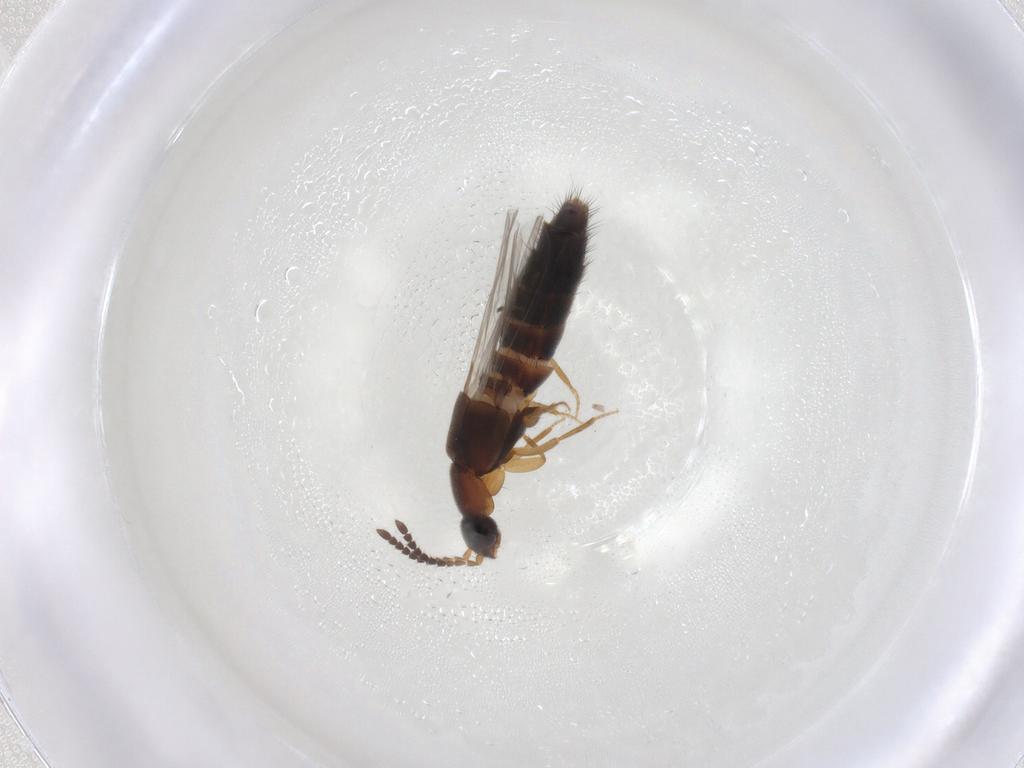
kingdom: Animalia
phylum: Arthropoda
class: Insecta
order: Coleoptera
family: Staphylinidae
